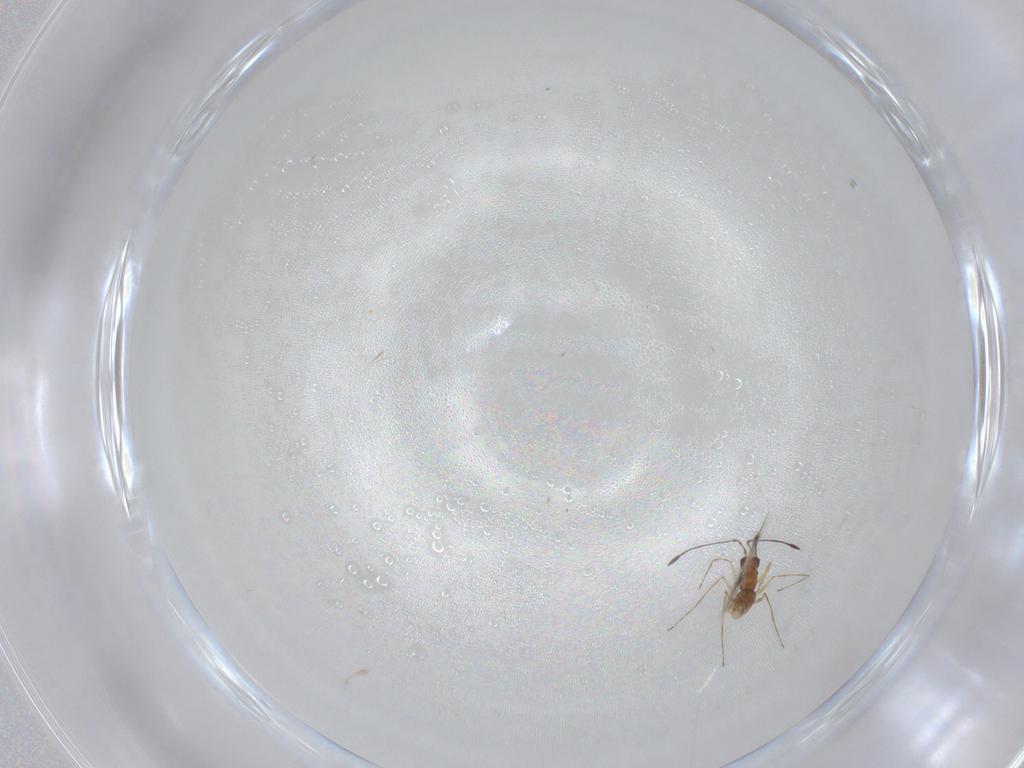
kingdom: Animalia
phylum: Arthropoda
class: Insecta
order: Hymenoptera
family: Mymaridae
